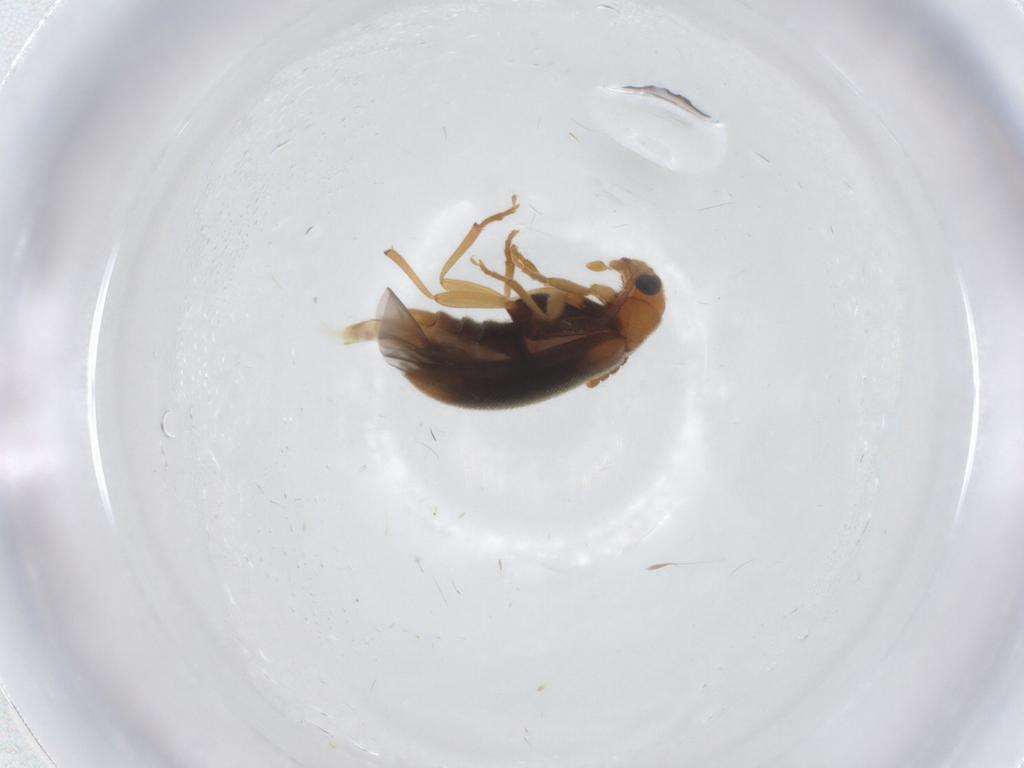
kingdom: Animalia
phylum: Arthropoda
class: Insecta
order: Coleoptera
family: Melandryidae
